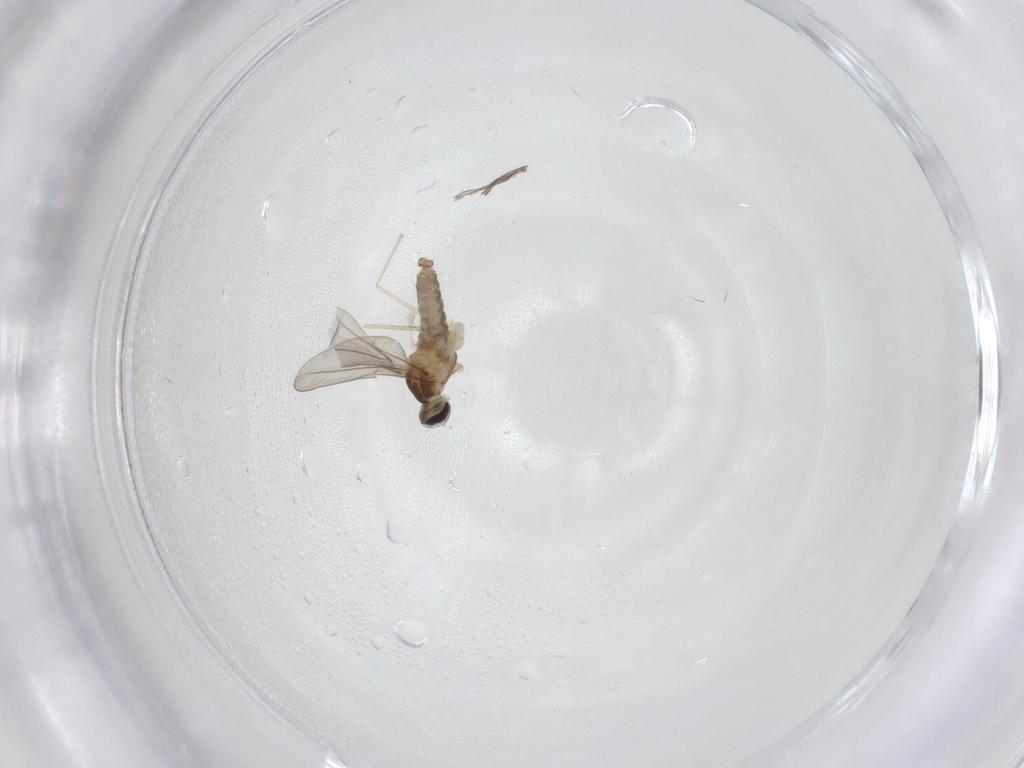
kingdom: Animalia
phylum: Arthropoda
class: Insecta
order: Diptera
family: Cecidomyiidae
